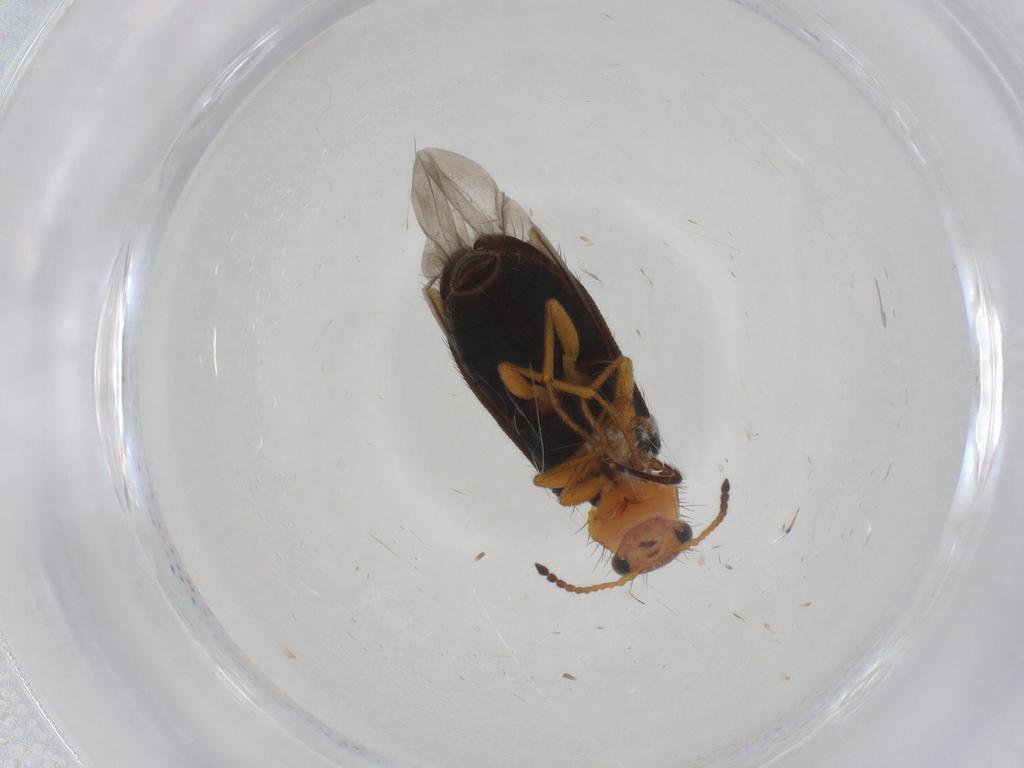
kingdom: Animalia
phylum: Arthropoda
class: Insecta
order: Coleoptera
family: Melyridae
